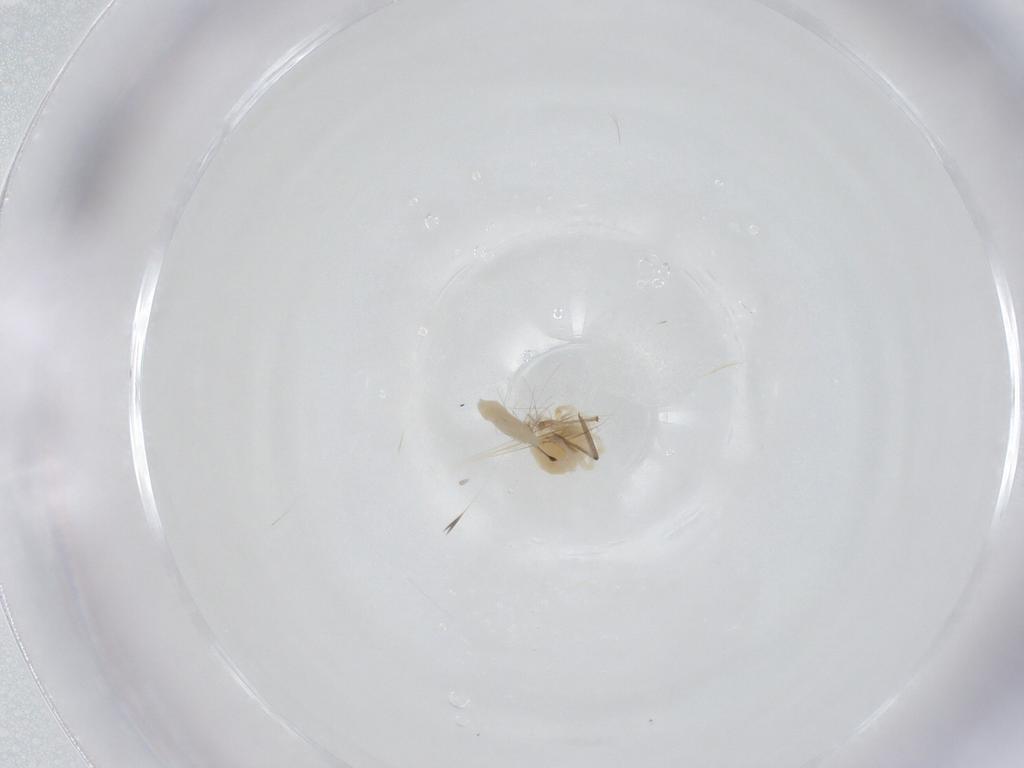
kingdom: Animalia
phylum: Arthropoda
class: Insecta
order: Diptera
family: Sciaridae
